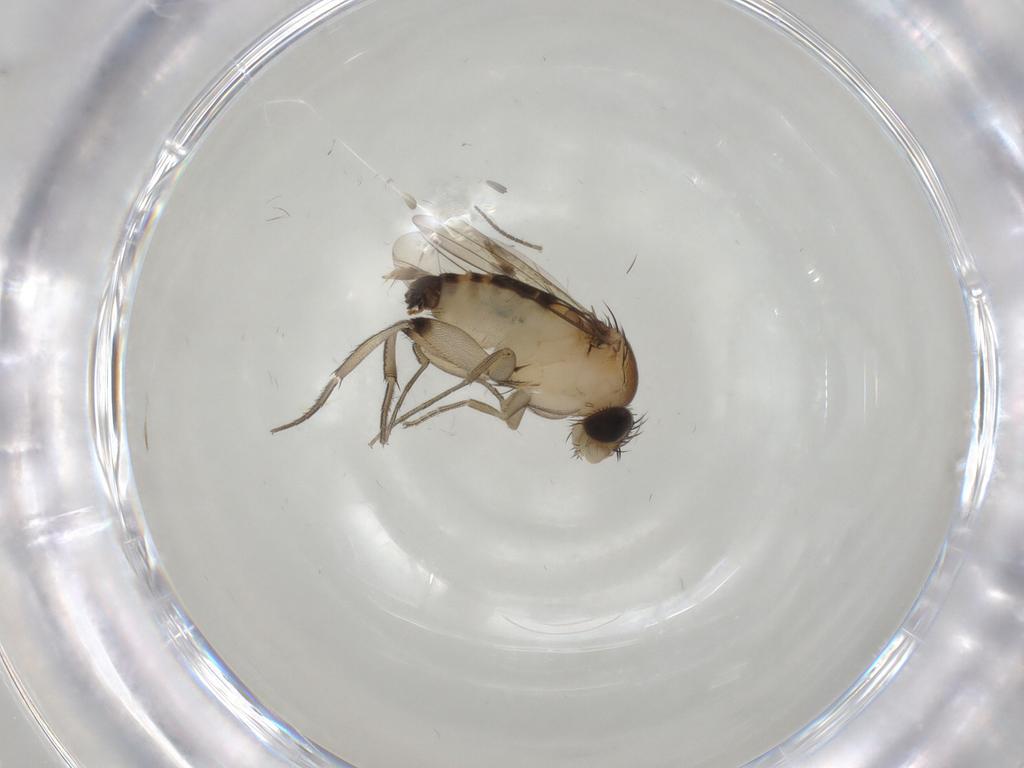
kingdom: Animalia
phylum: Arthropoda
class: Insecta
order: Diptera
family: Phoridae
